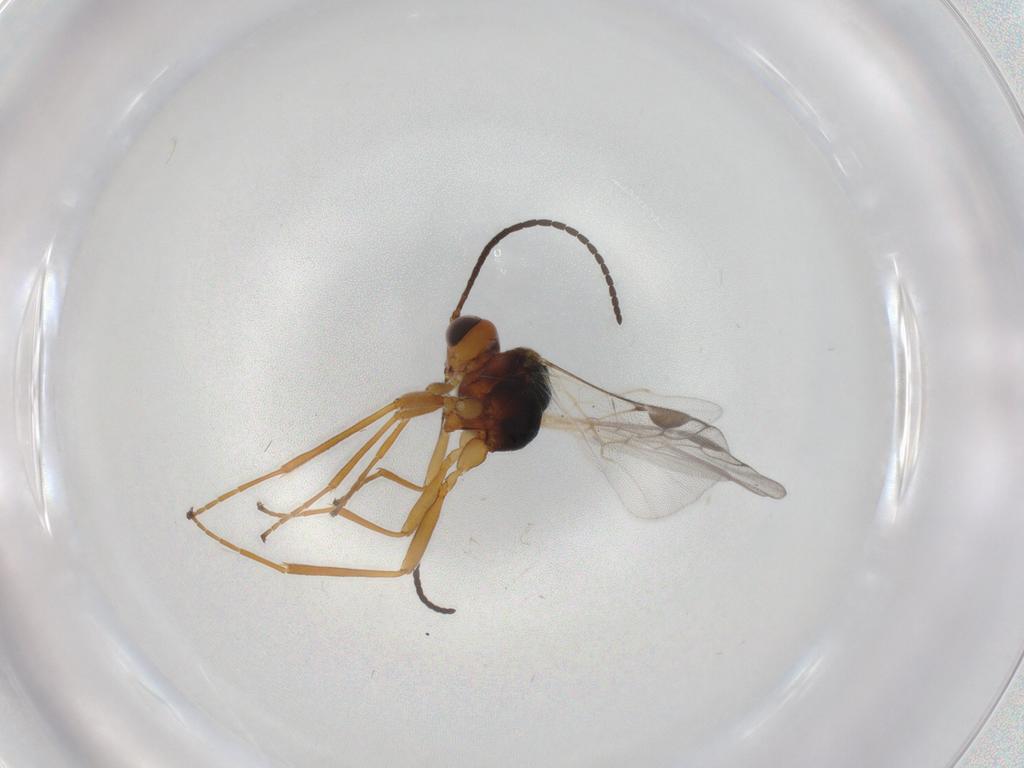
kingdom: Animalia
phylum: Arthropoda
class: Insecta
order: Hymenoptera
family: Braconidae
